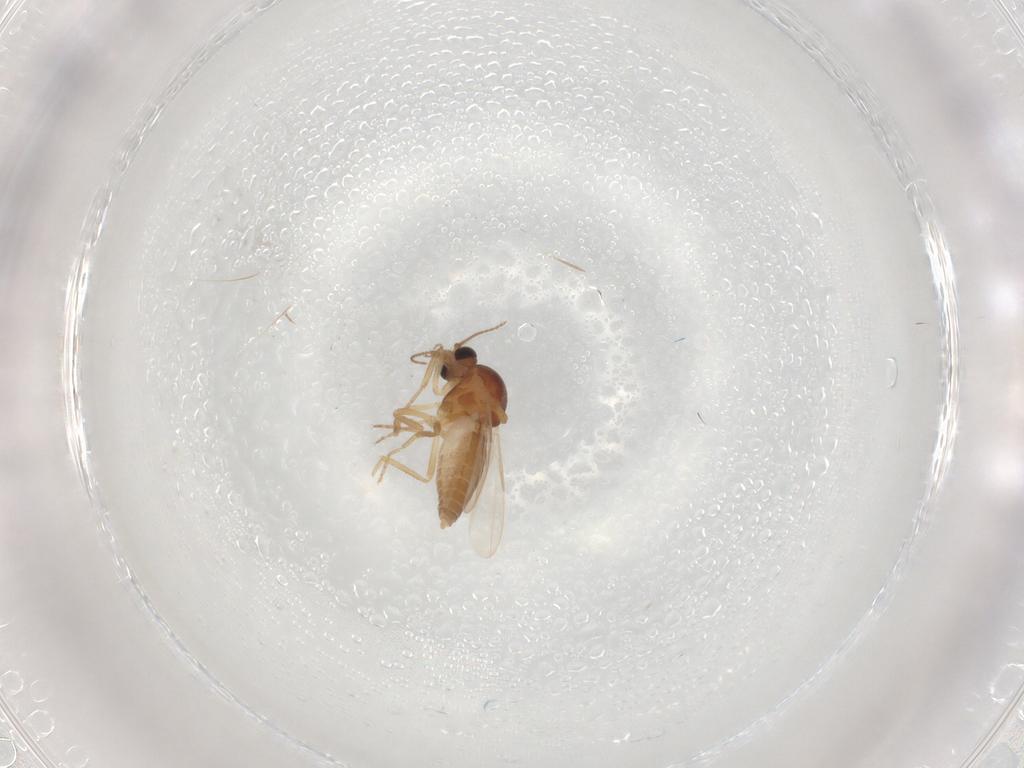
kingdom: Animalia
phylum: Arthropoda
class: Insecta
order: Diptera
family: Ceratopogonidae
